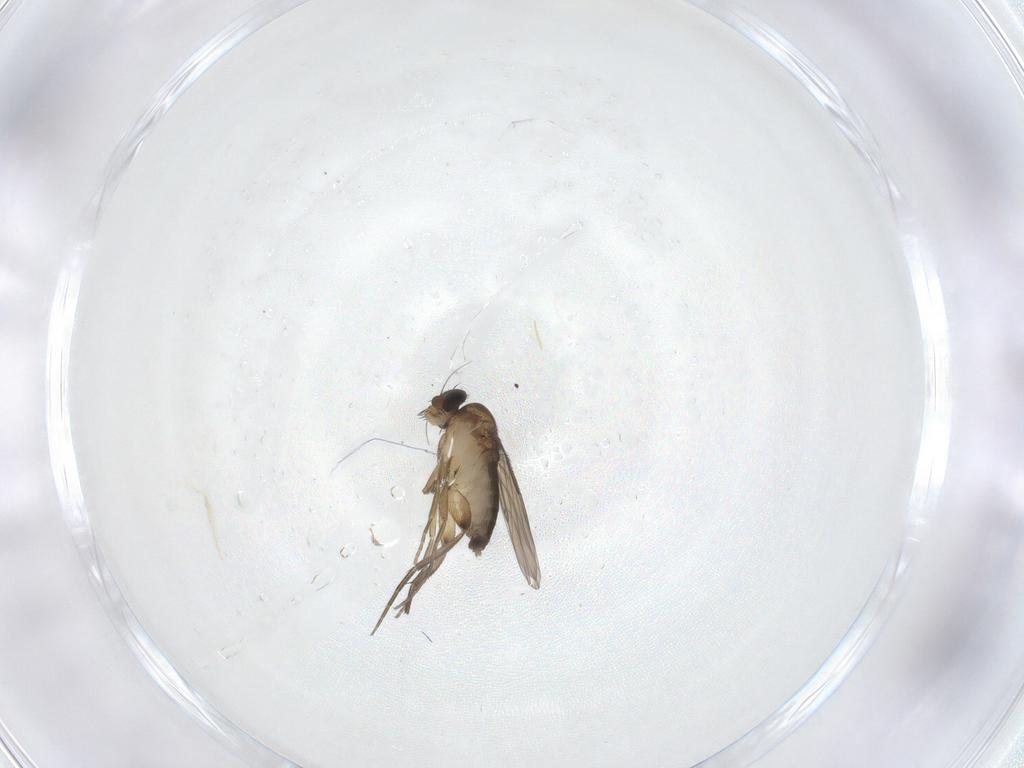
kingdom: Animalia
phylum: Arthropoda
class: Insecta
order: Diptera
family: Phoridae
